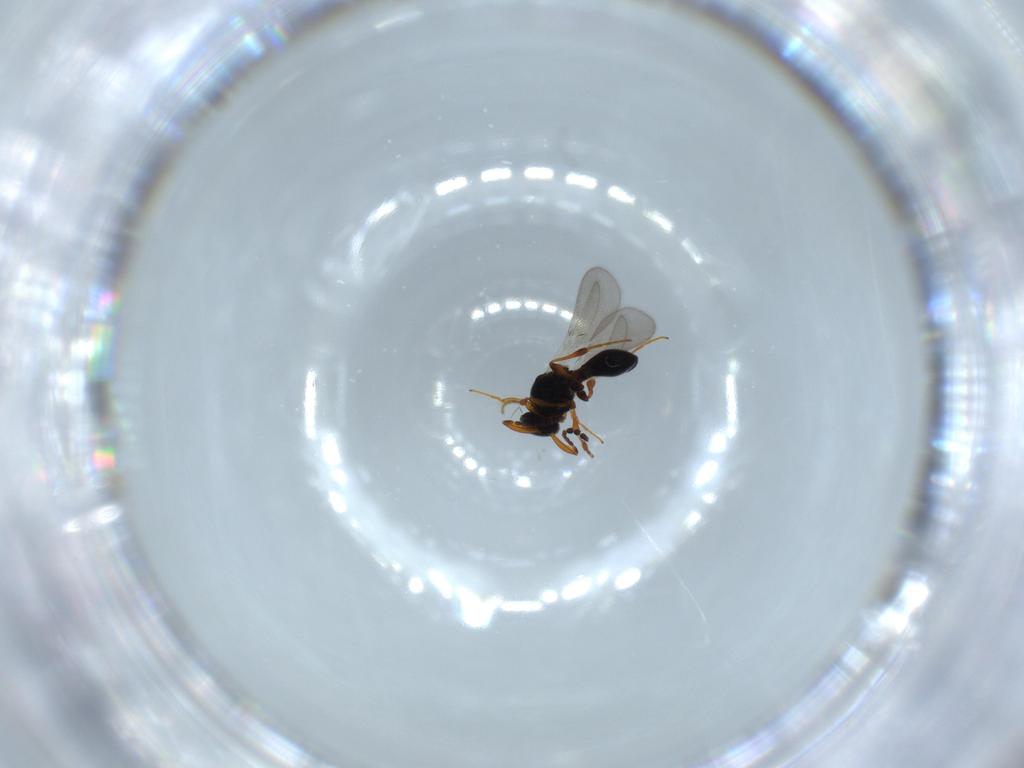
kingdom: Animalia
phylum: Arthropoda
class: Insecta
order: Hymenoptera
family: Platygastridae
